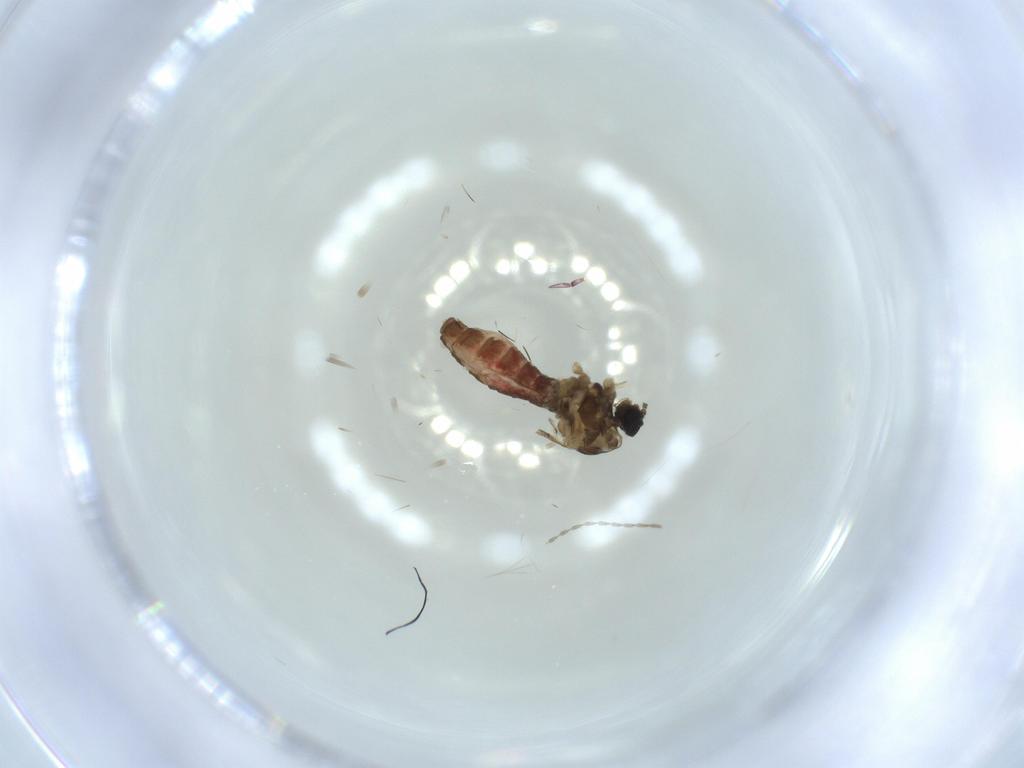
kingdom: Animalia
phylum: Arthropoda
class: Insecta
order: Diptera
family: Cecidomyiidae
